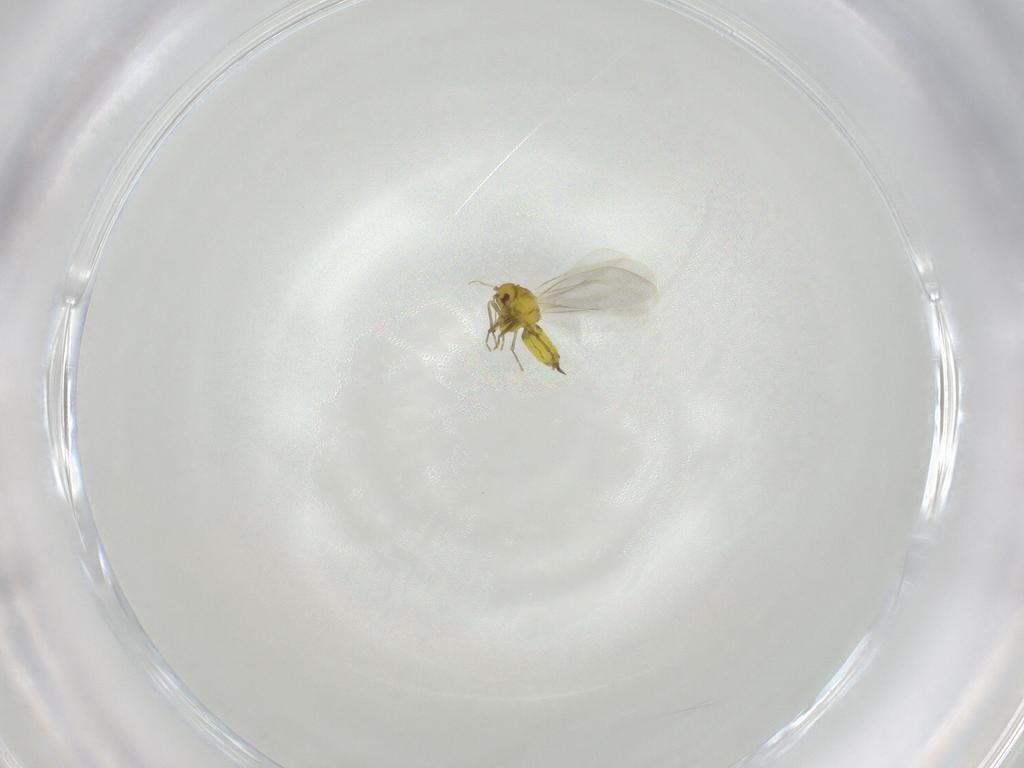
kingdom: Animalia
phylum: Arthropoda
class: Insecta
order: Hemiptera
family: Aleyrodidae
